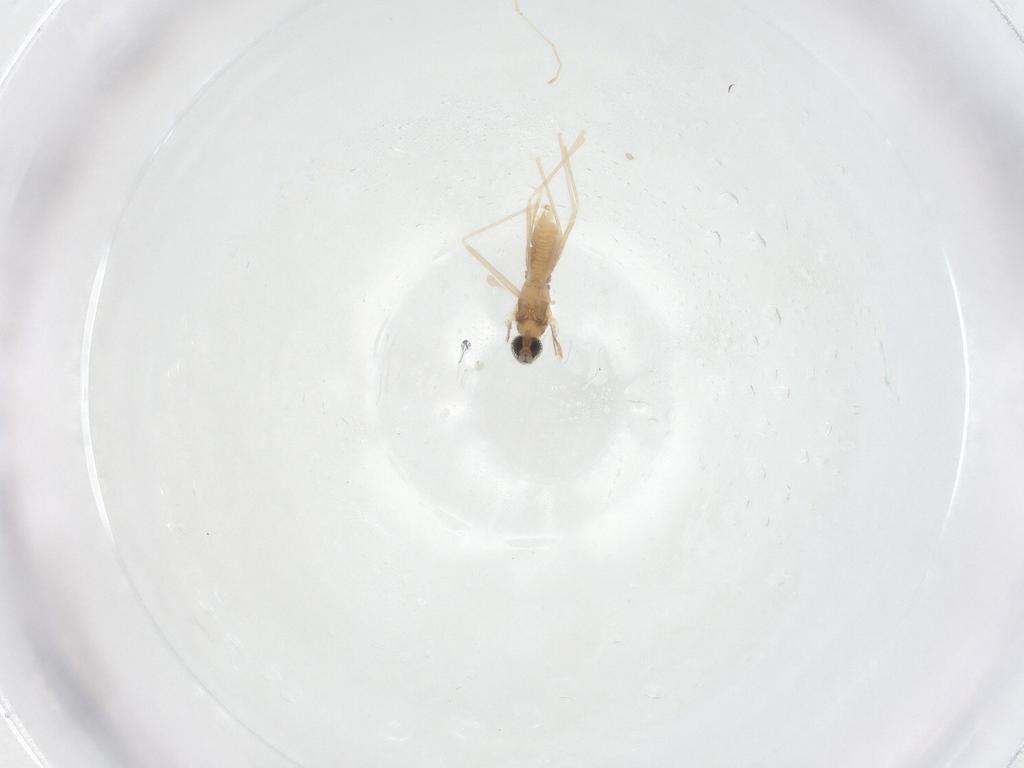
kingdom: Animalia
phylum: Arthropoda
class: Insecta
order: Diptera
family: Cecidomyiidae
